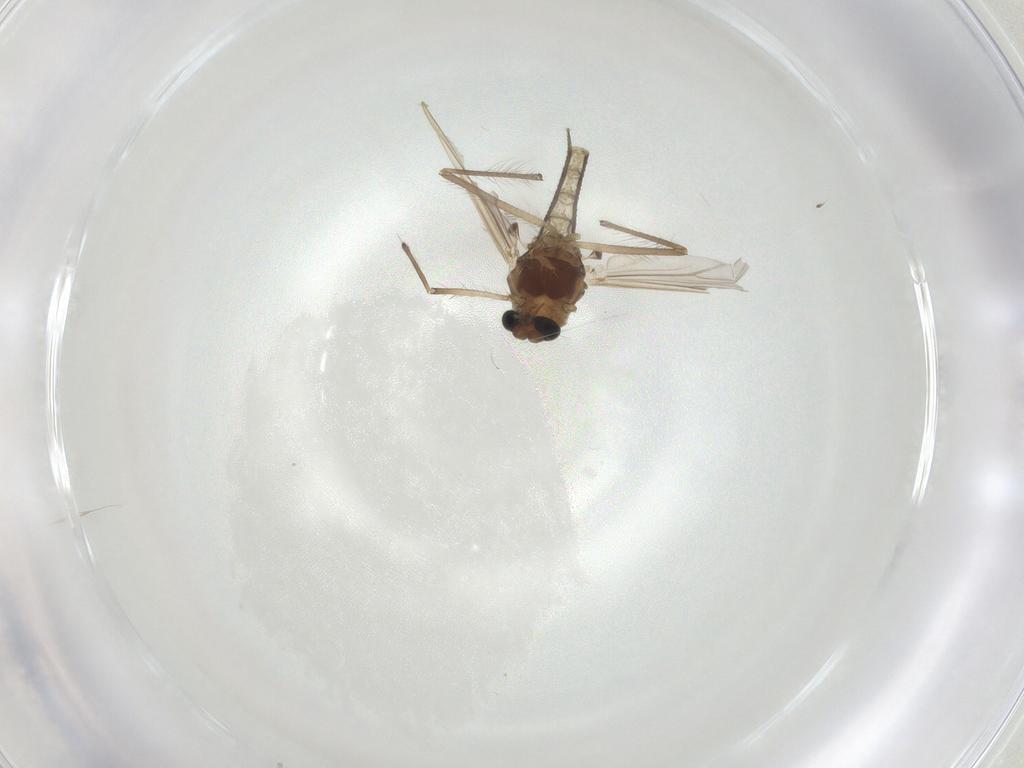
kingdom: Animalia
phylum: Arthropoda
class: Insecta
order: Diptera
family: Chironomidae
